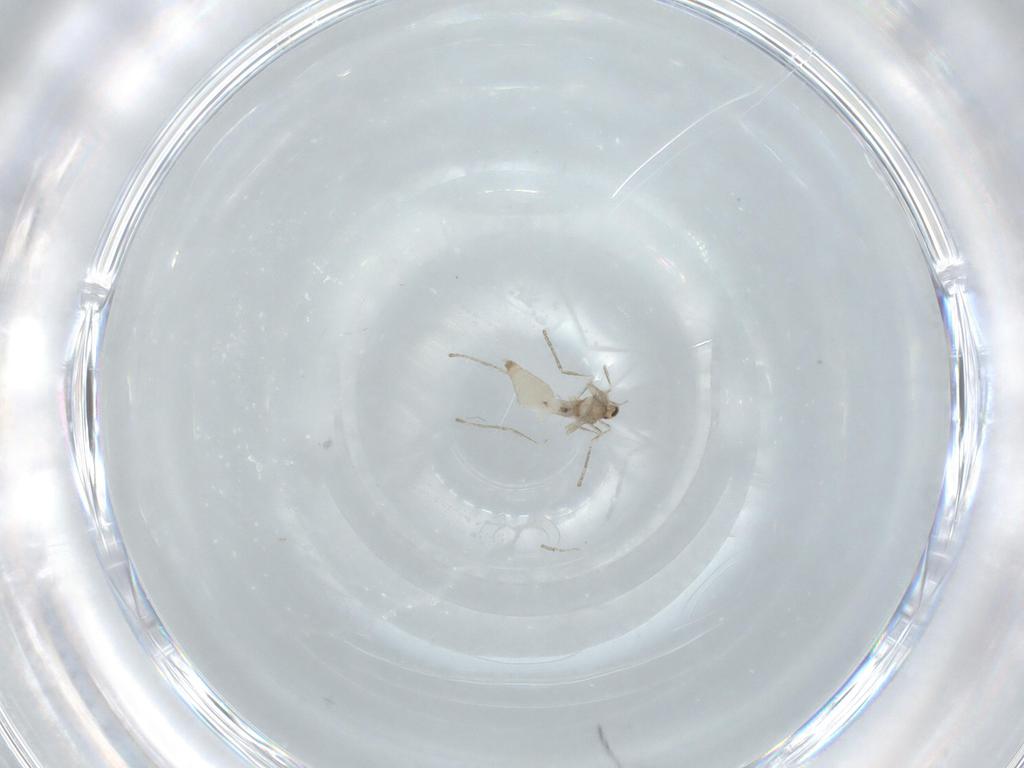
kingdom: Animalia
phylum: Arthropoda
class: Insecta
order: Diptera
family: Cecidomyiidae
